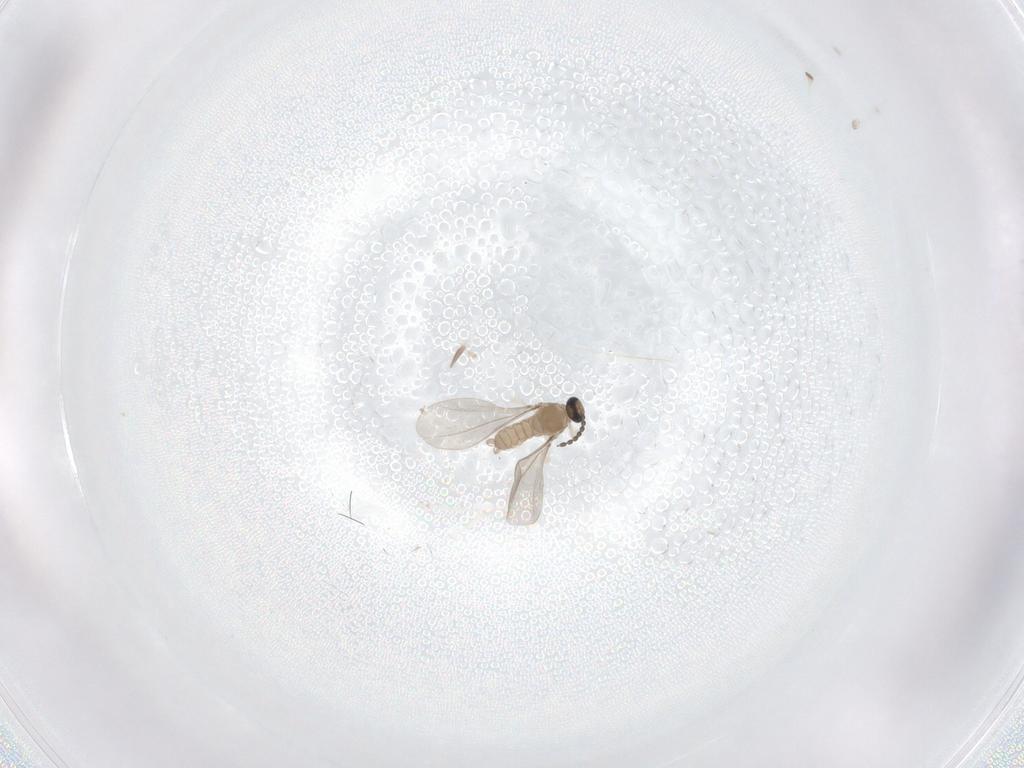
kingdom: Animalia
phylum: Arthropoda
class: Insecta
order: Diptera
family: Cecidomyiidae
